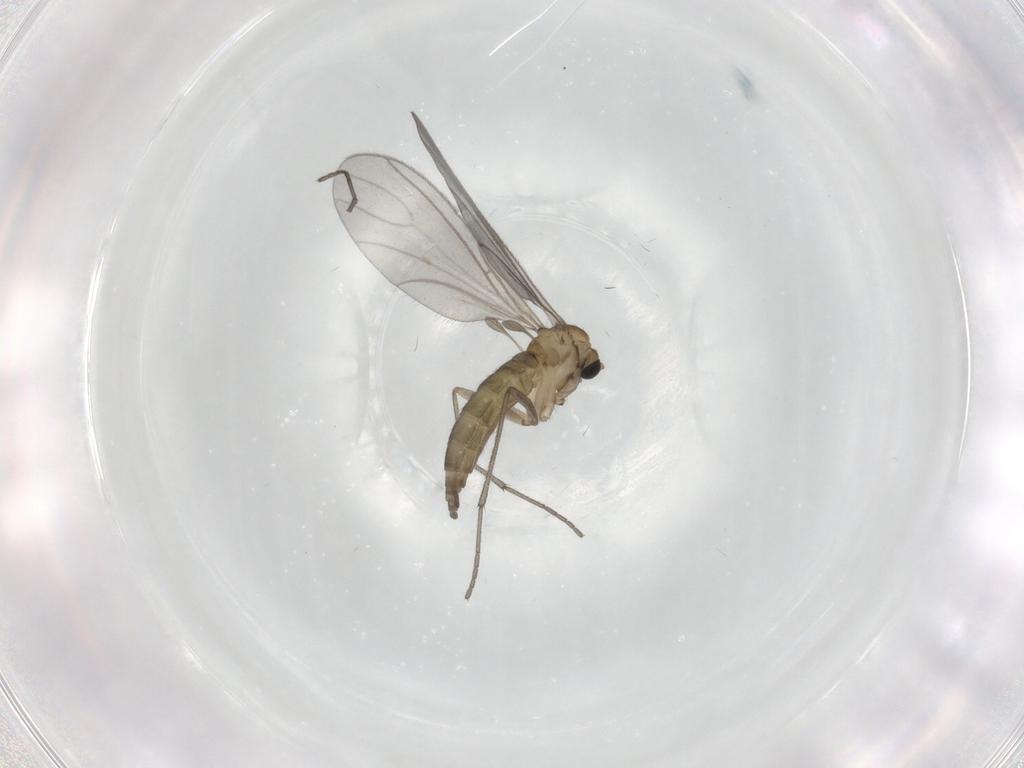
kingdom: Animalia
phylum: Arthropoda
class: Insecta
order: Diptera
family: Sciaridae
